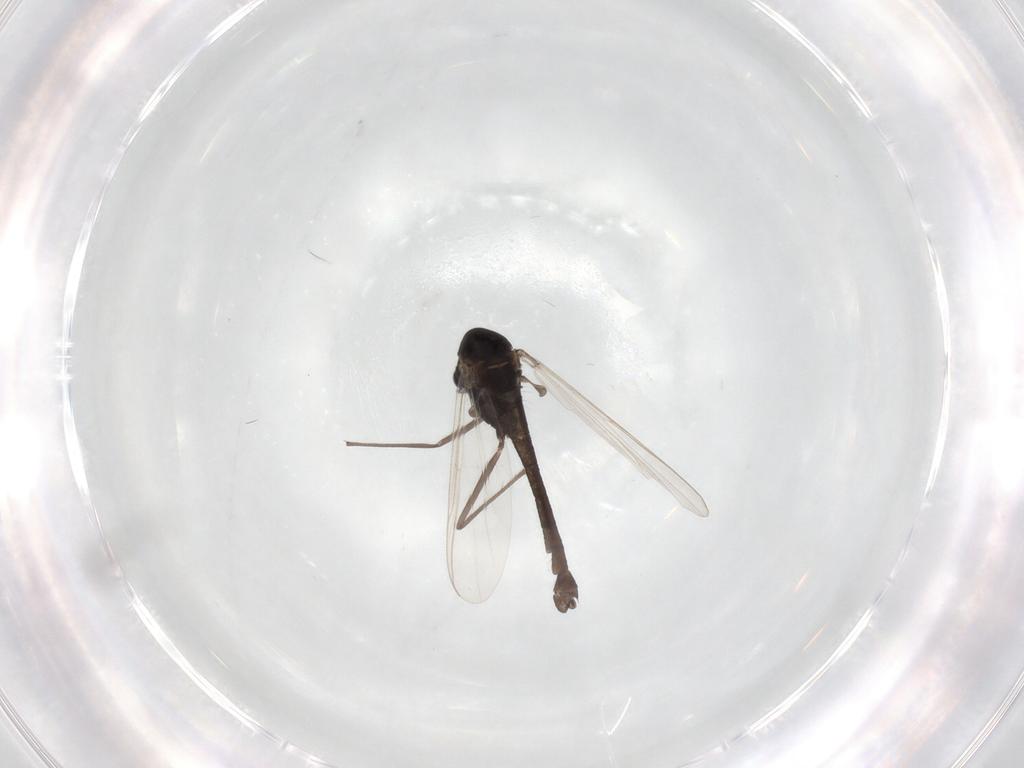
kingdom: Animalia
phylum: Arthropoda
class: Insecta
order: Diptera
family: Chironomidae
